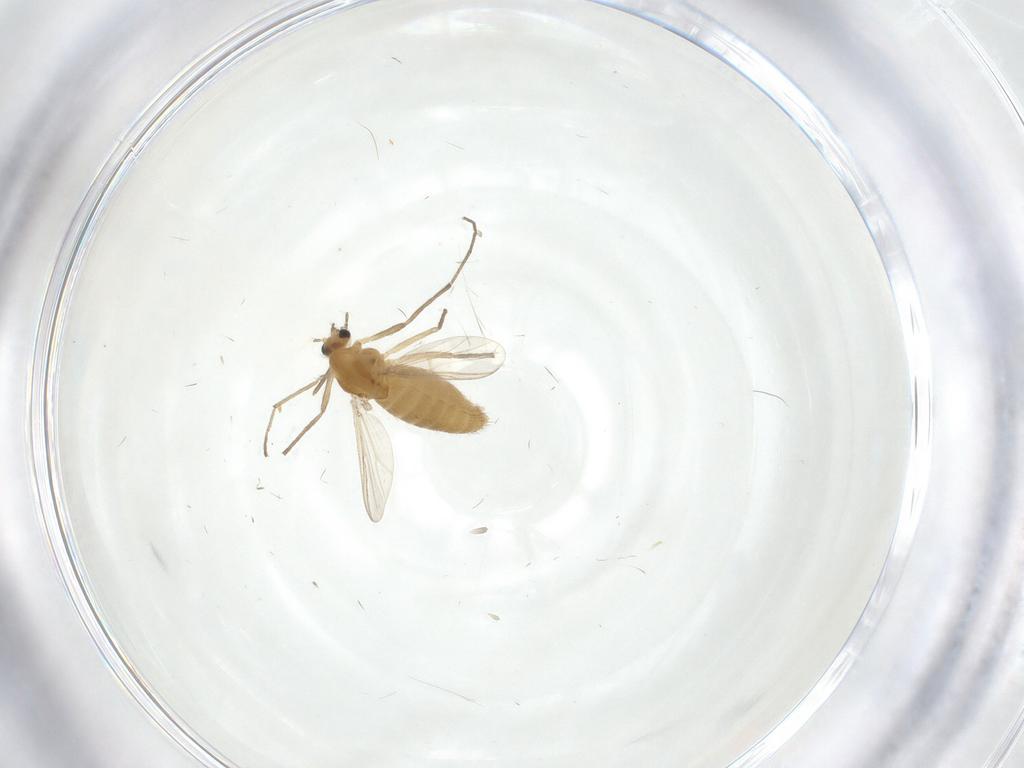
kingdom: Animalia
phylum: Arthropoda
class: Insecta
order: Diptera
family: Chironomidae
